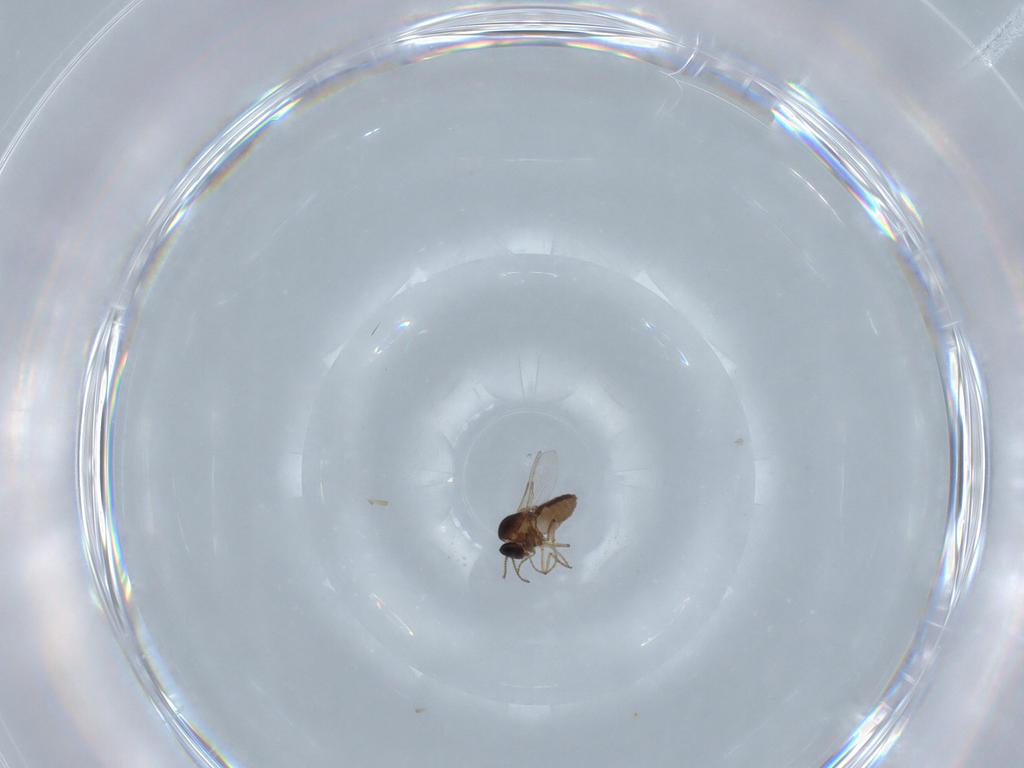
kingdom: Animalia
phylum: Arthropoda
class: Insecta
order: Diptera
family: Ceratopogonidae
